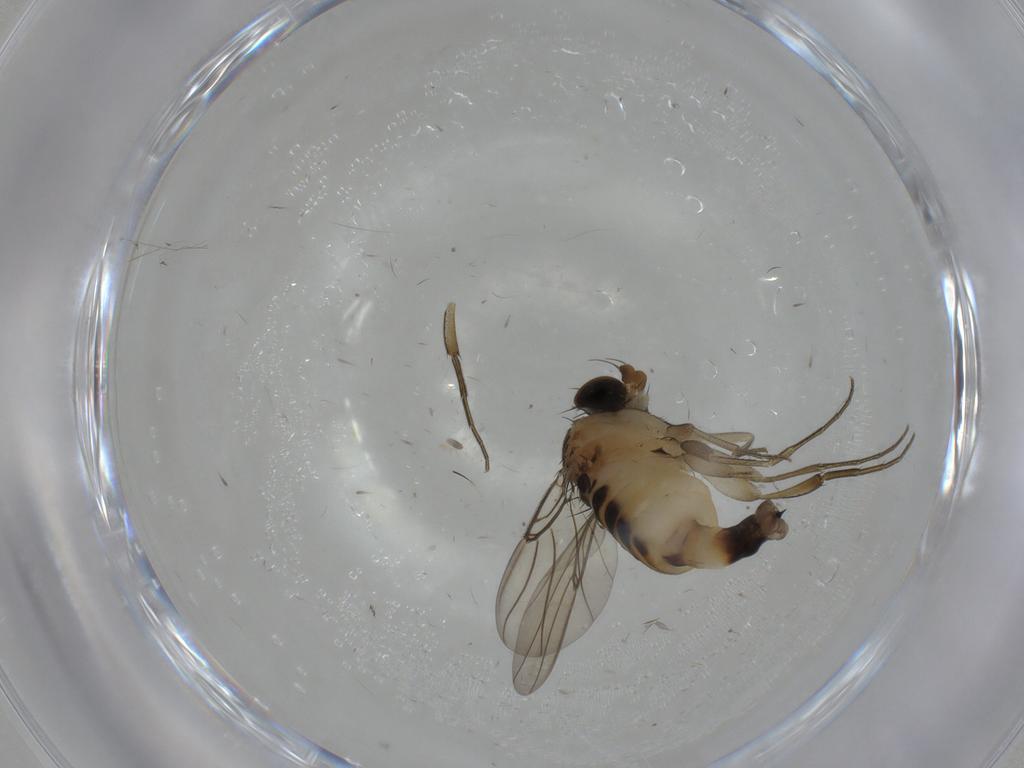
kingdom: Animalia
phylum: Arthropoda
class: Insecta
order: Diptera
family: Phoridae
